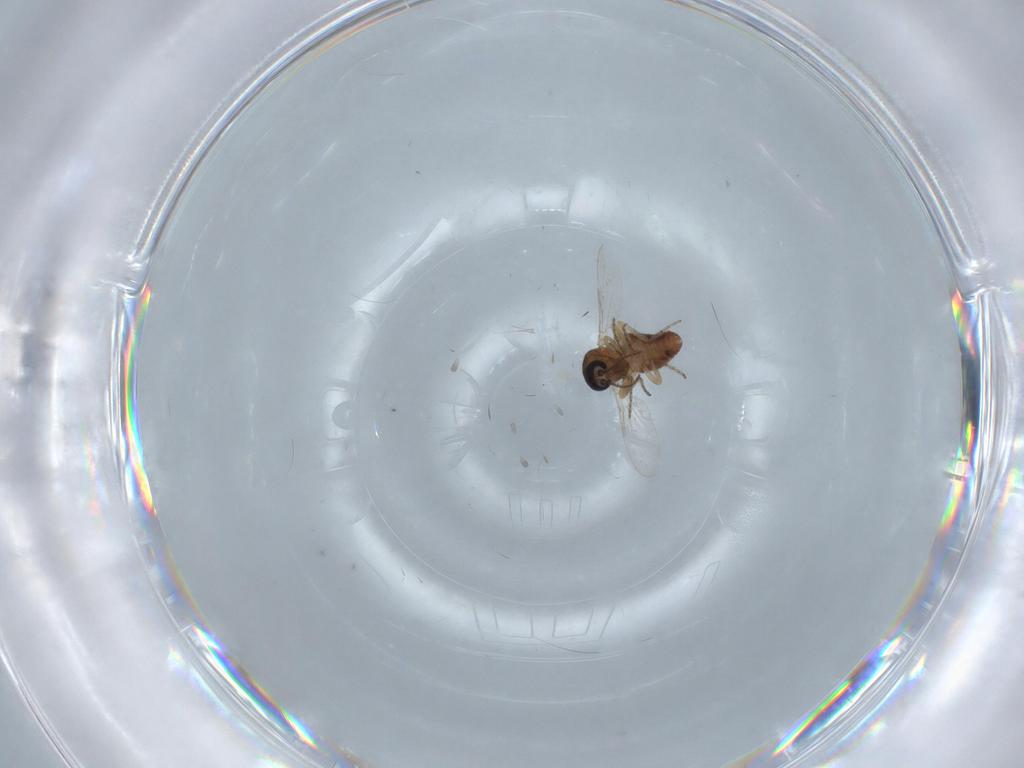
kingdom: Animalia
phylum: Arthropoda
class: Insecta
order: Diptera
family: Ceratopogonidae
